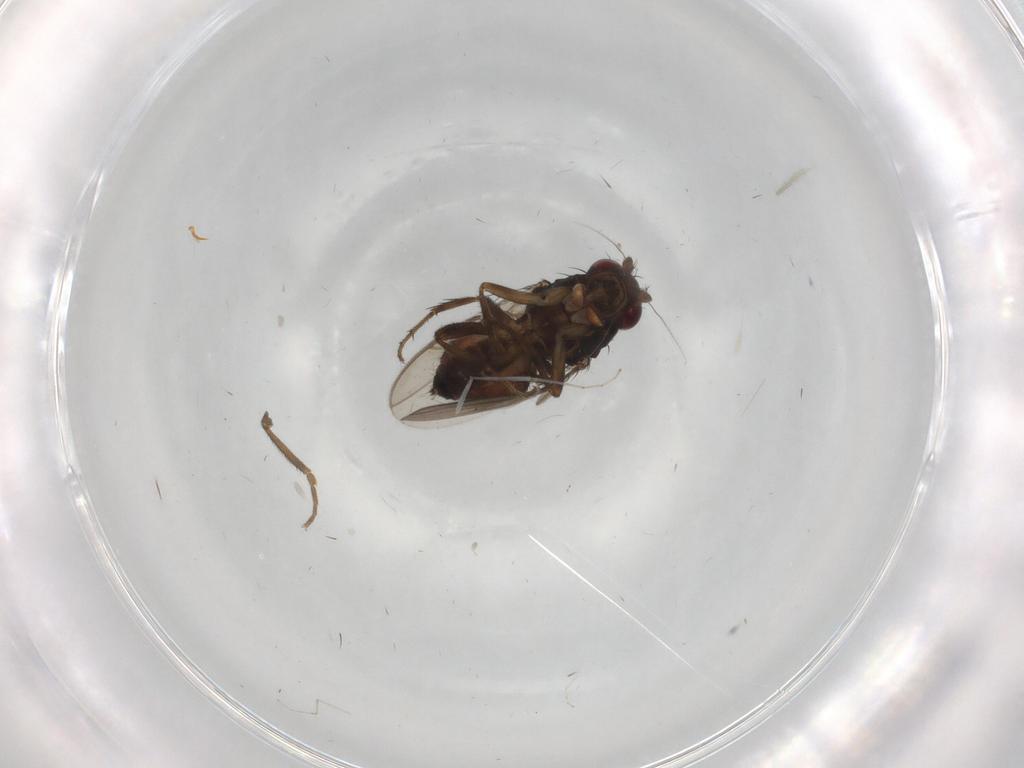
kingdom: Animalia
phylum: Arthropoda
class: Insecta
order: Diptera
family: Cecidomyiidae
